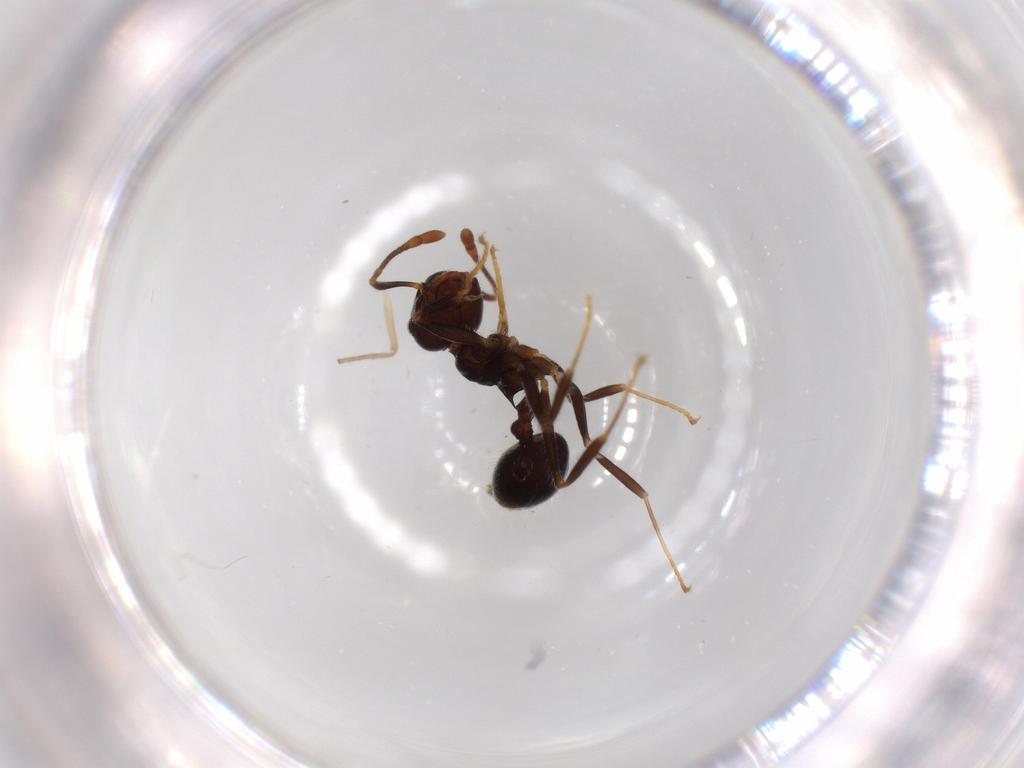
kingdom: Animalia
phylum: Arthropoda
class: Insecta
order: Hymenoptera
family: Formicidae
